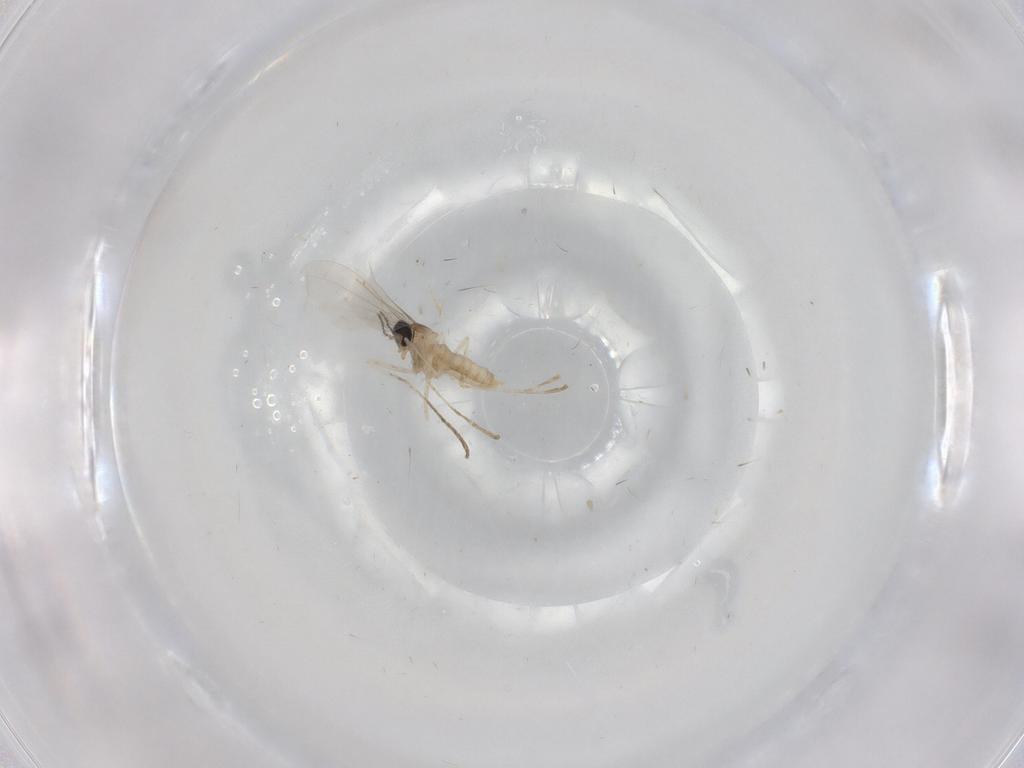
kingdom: Animalia
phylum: Arthropoda
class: Insecta
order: Diptera
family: Cecidomyiidae
